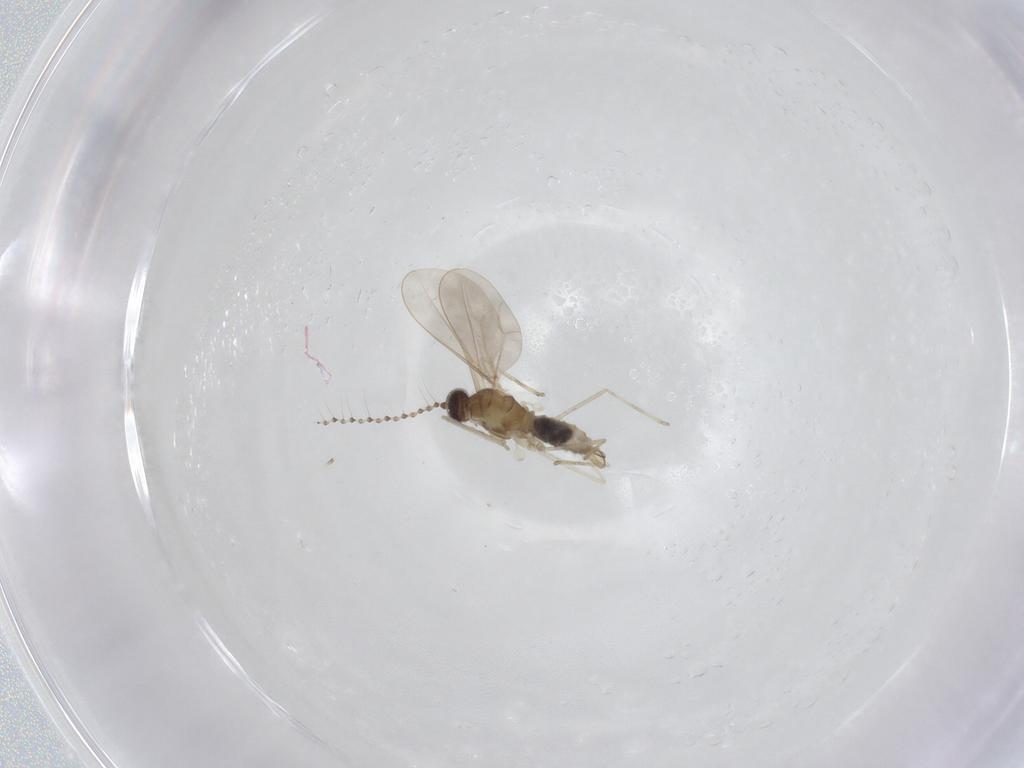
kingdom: Animalia
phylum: Arthropoda
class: Insecta
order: Diptera
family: Cecidomyiidae
